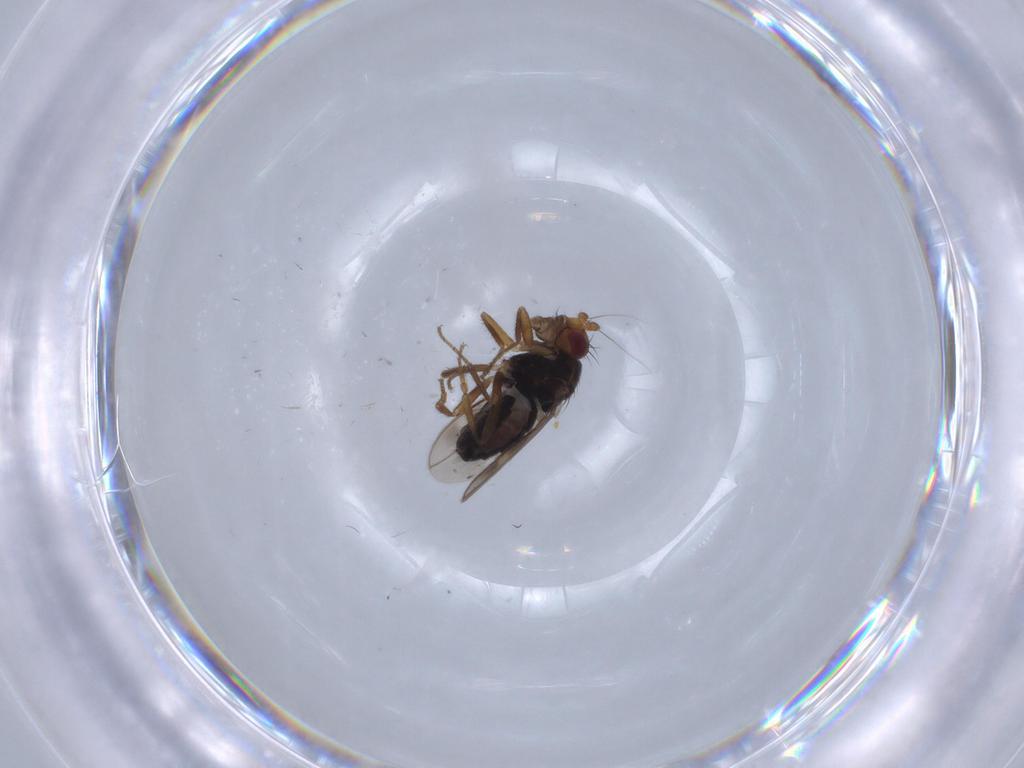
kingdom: Animalia
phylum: Arthropoda
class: Insecta
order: Diptera
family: Sphaeroceridae
